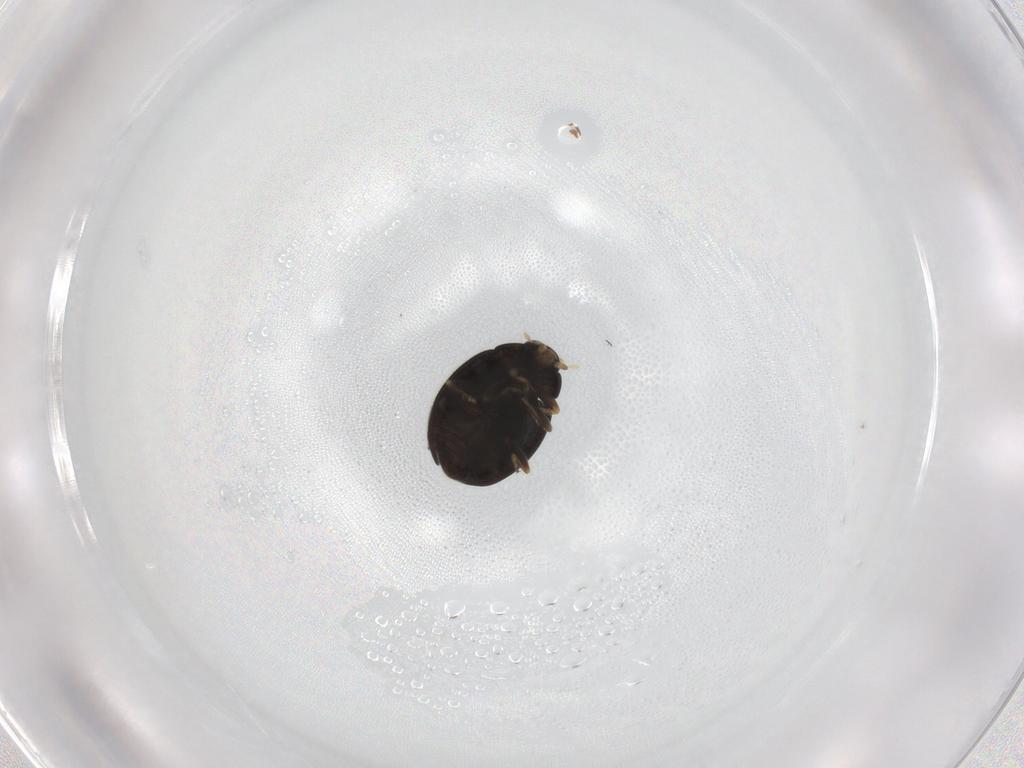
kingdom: Animalia
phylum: Arthropoda
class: Insecta
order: Coleoptera
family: Coccinellidae
